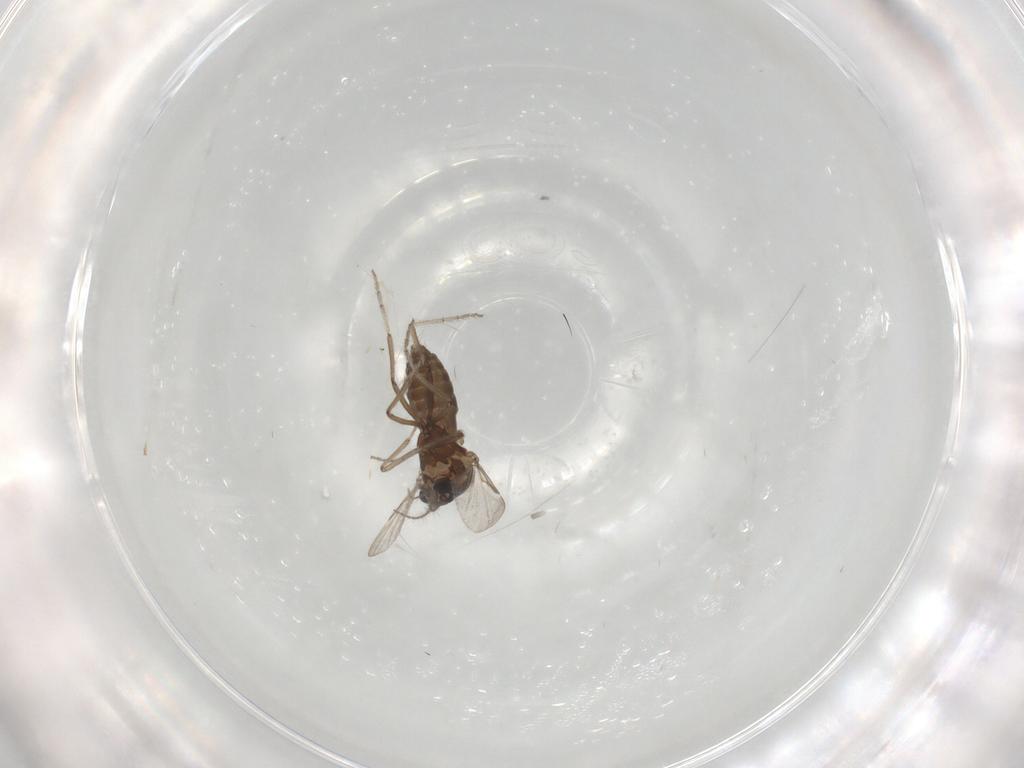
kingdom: Animalia
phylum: Arthropoda
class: Insecta
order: Diptera
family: Ceratopogonidae
